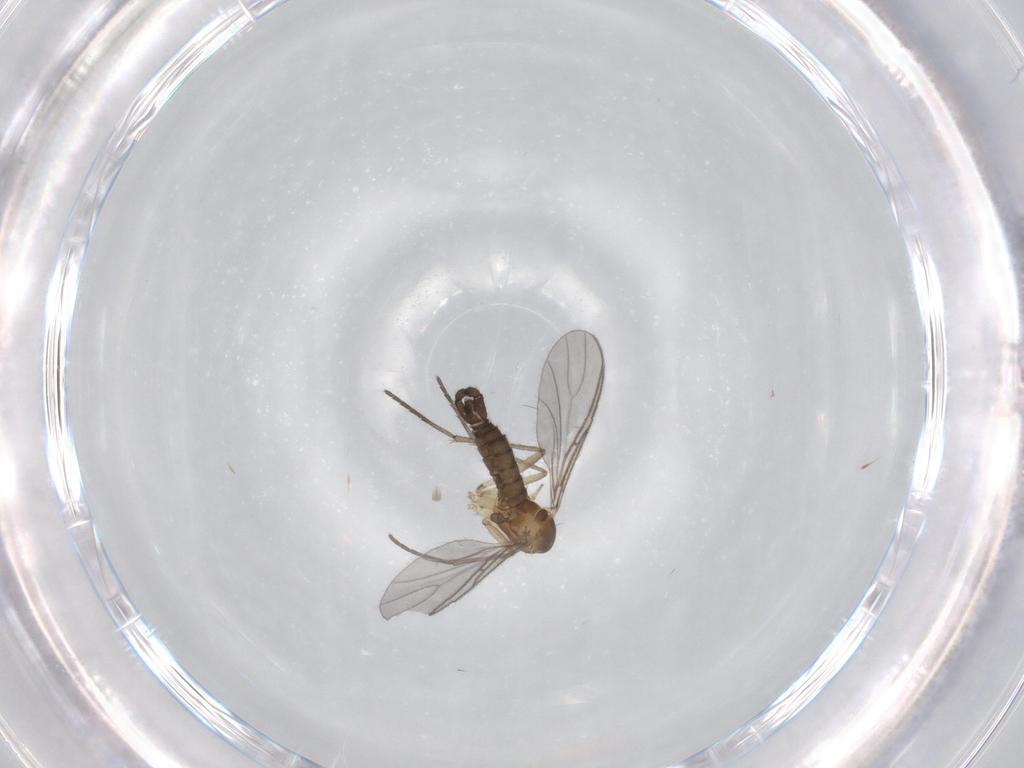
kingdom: Animalia
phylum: Arthropoda
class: Insecta
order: Diptera
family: Sciaridae
